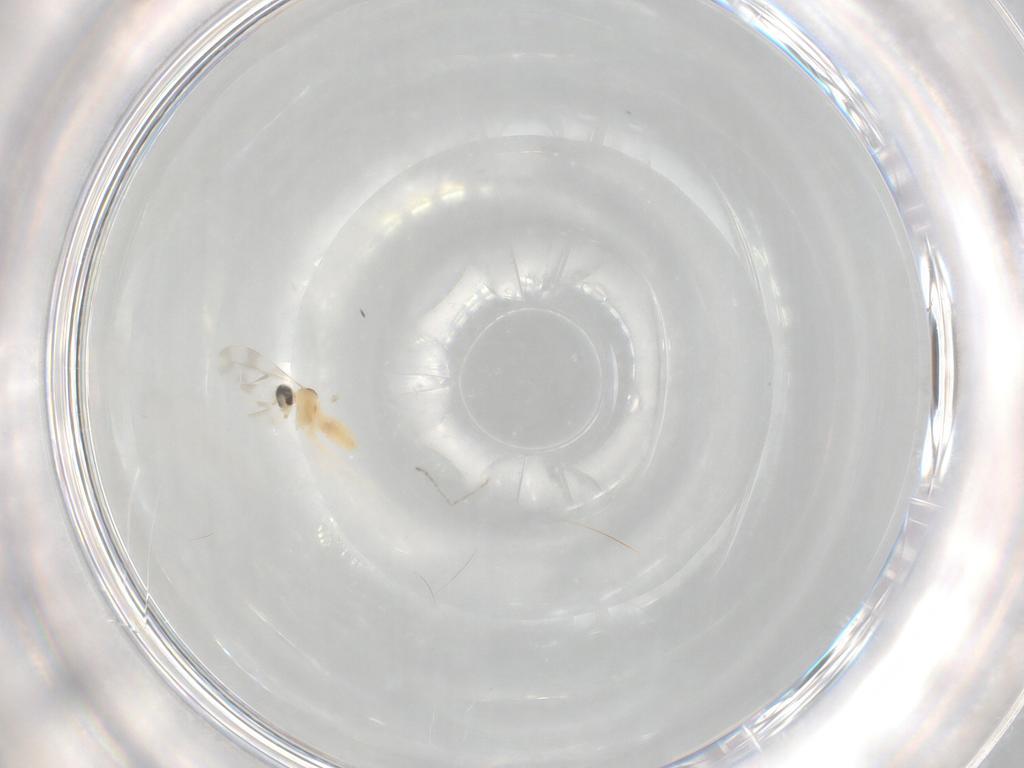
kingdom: Animalia
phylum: Arthropoda
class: Insecta
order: Diptera
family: Cecidomyiidae
